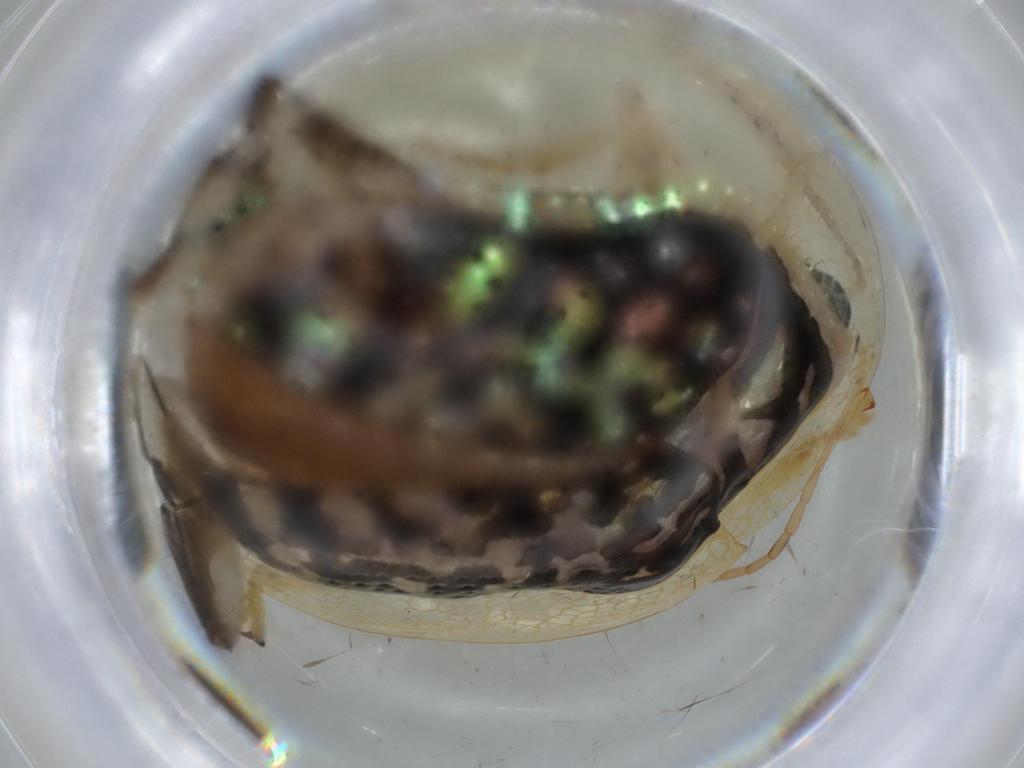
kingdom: Animalia
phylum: Arthropoda
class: Insecta
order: Coleoptera
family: Chrysomelidae
